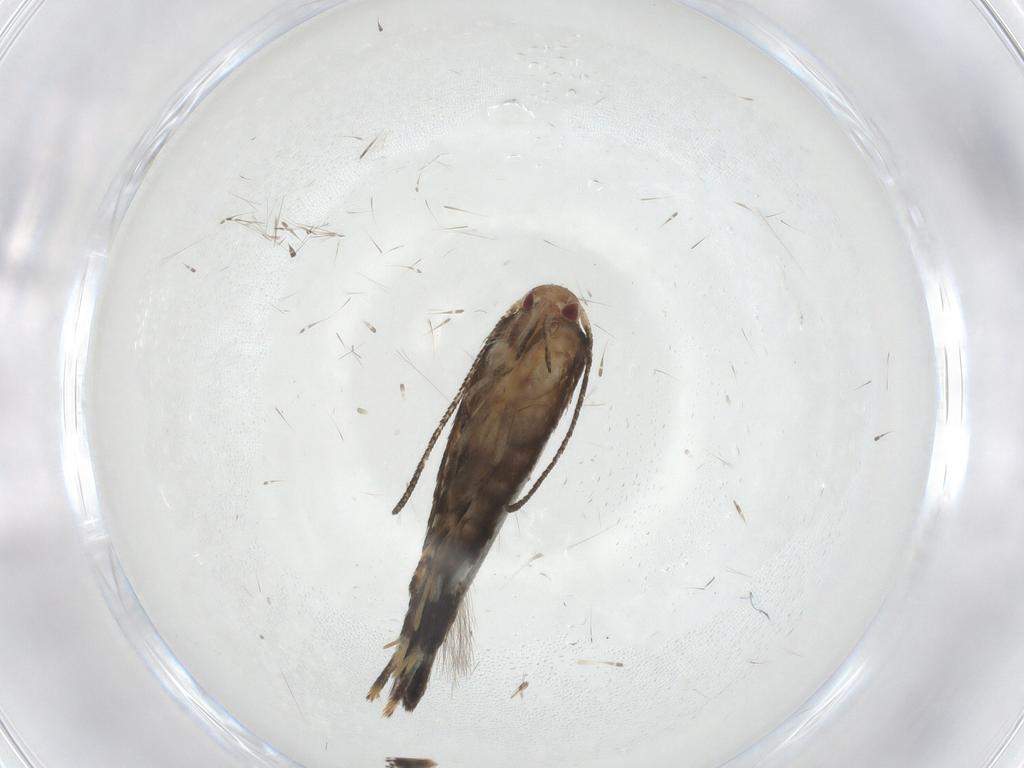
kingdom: Animalia
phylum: Arthropoda
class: Insecta
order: Lepidoptera
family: Momphidae
